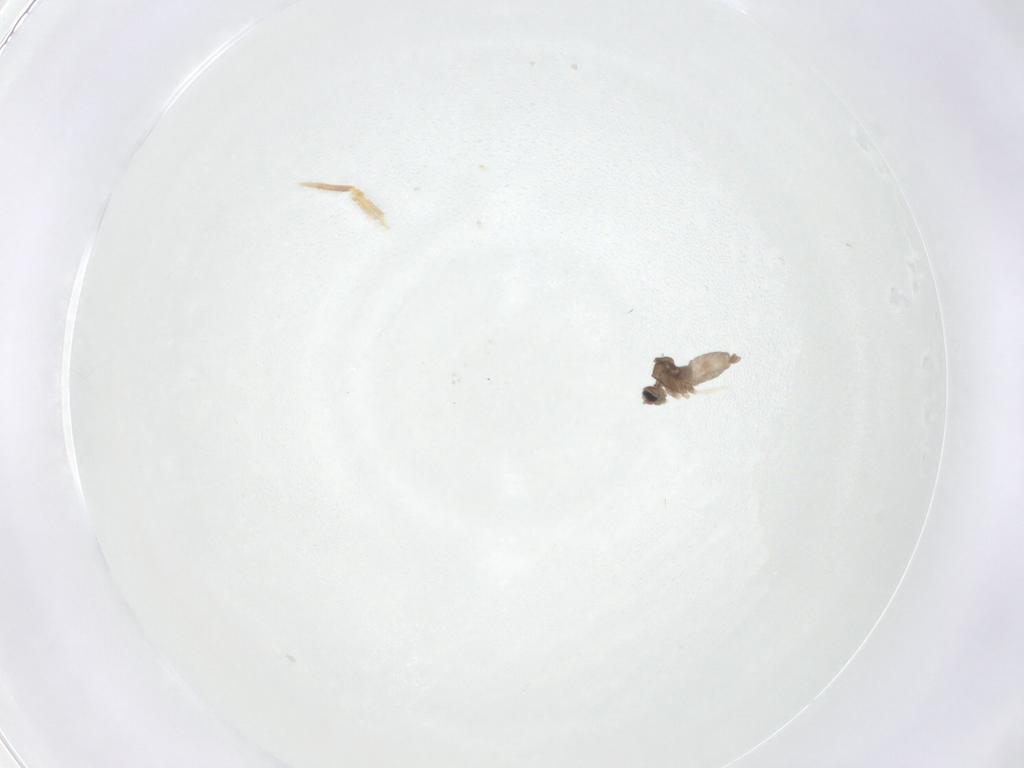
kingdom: Animalia
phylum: Arthropoda
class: Insecta
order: Diptera
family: Cecidomyiidae
